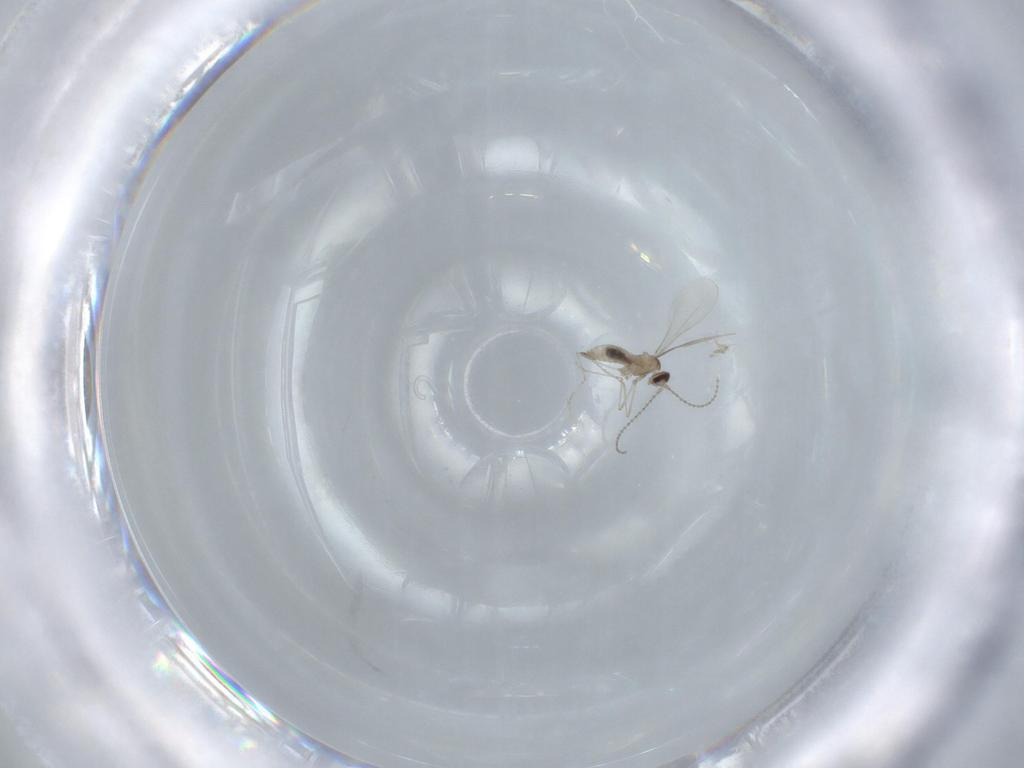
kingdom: Animalia
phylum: Arthropoda
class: Insecta
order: Diptera
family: Cecidomyiidae
